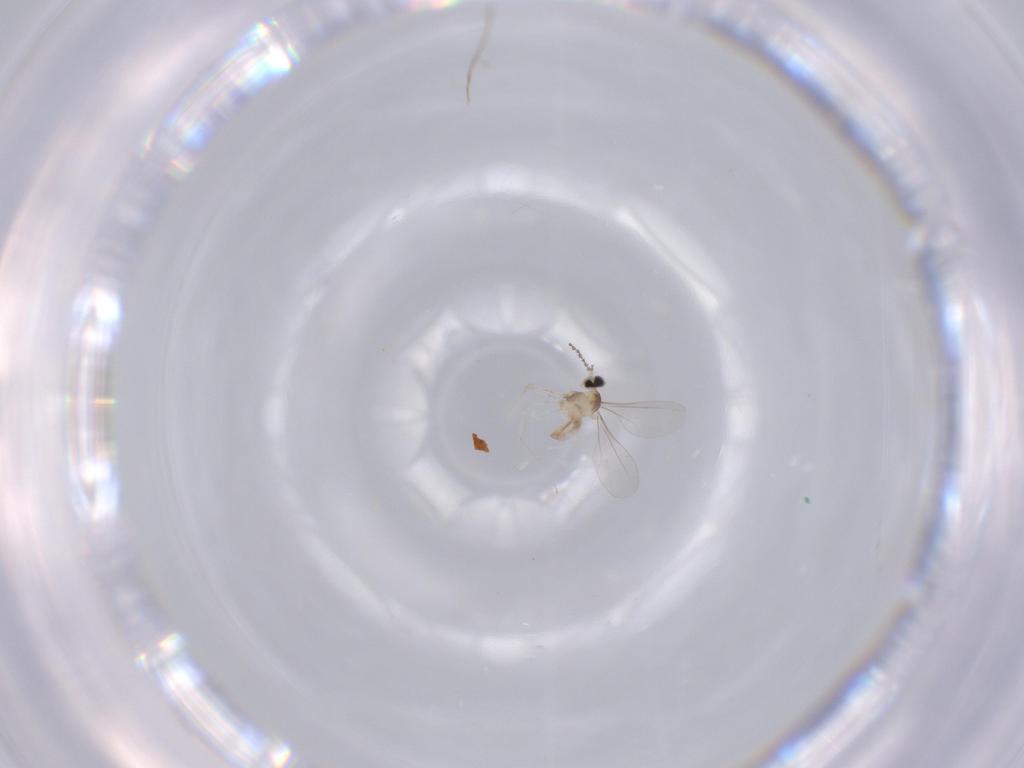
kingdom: Animalia
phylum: Arthropoda
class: Insecta
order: Diptera
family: Cecidomyiidae
